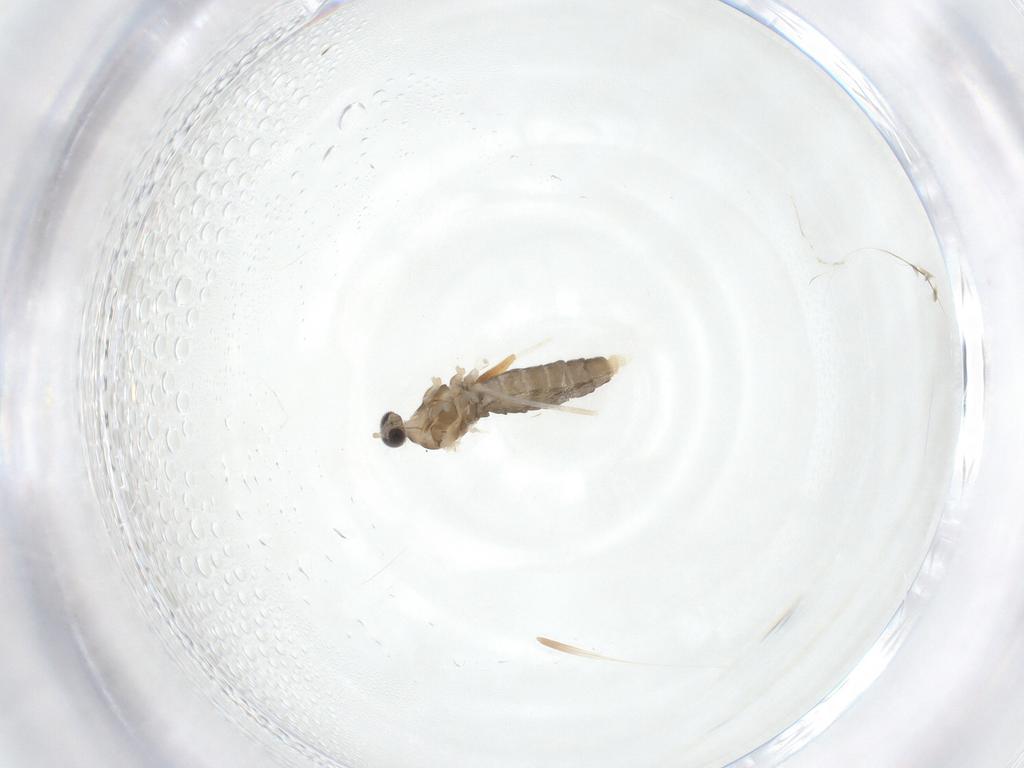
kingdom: Animalia
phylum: Arthropoda
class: Insecta
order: Diptera
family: Cecidomyiidae
